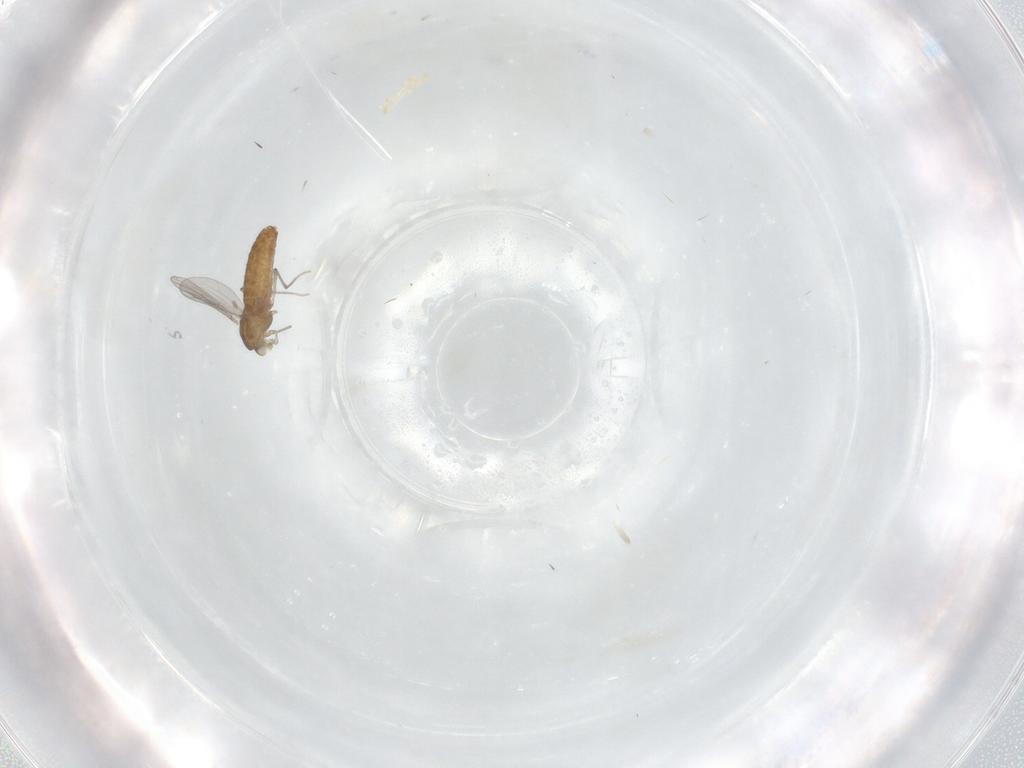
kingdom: Animalia
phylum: Arthropoda
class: Insecta
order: Diptera
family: Chironomidae
